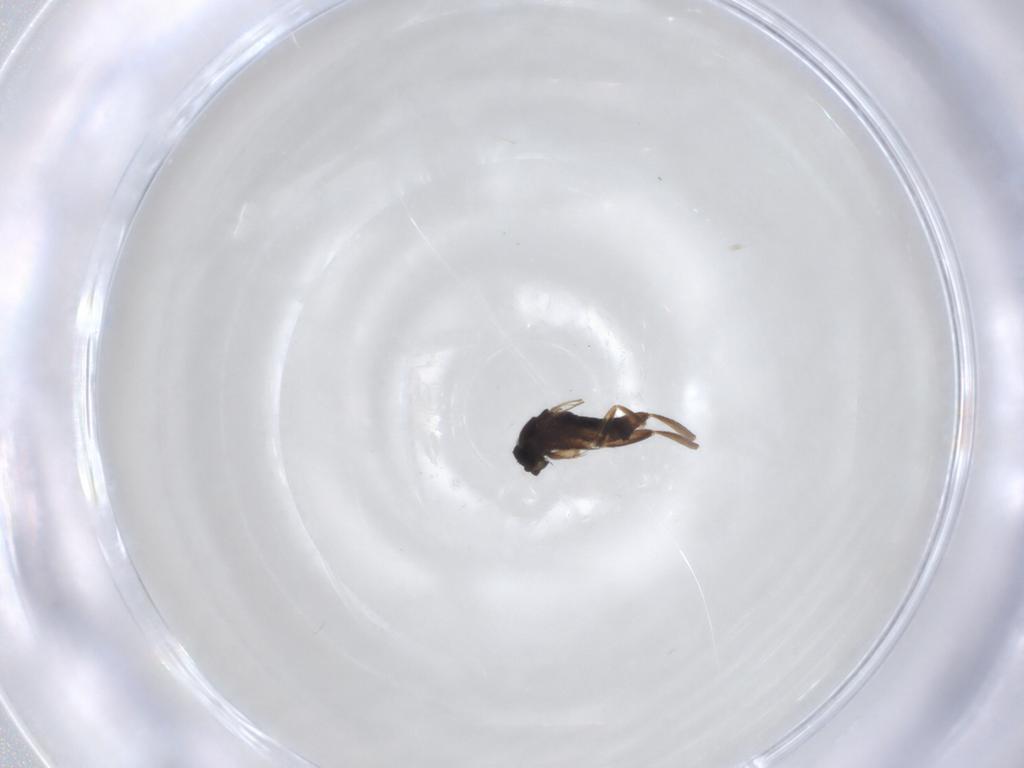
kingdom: Animalia
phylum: Arthropoda
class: Insecta
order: Diptera
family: Phoridae
